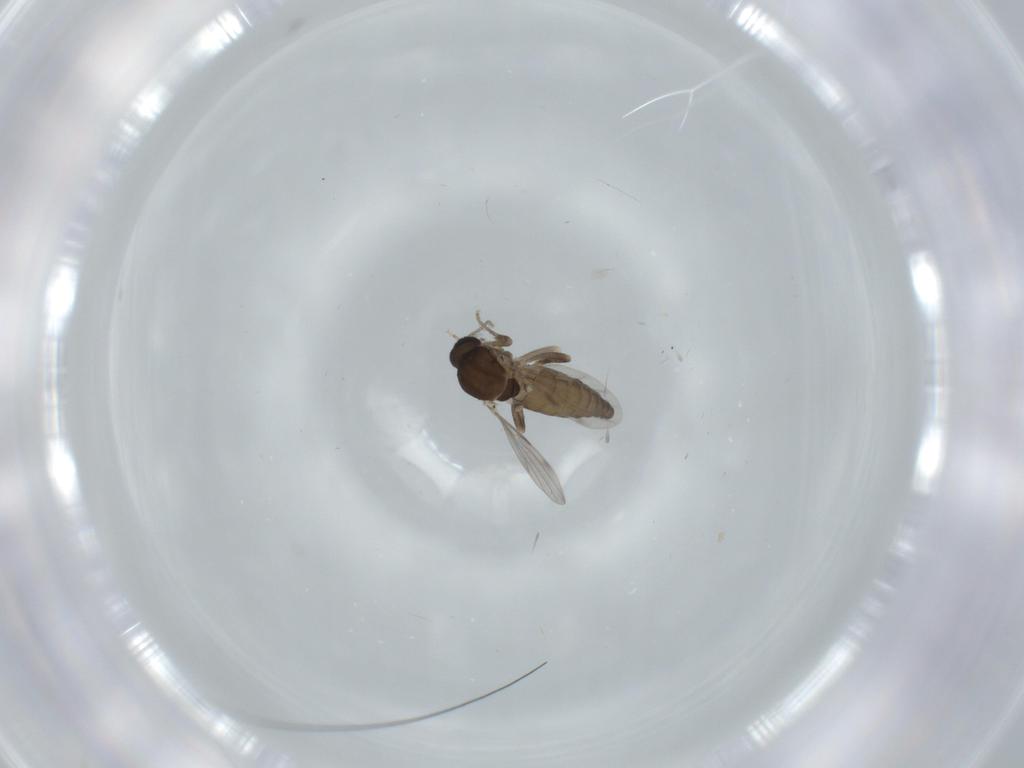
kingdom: Animalia
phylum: Arthropoda
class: Insecta
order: Diptera
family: Ceratopogonidae
